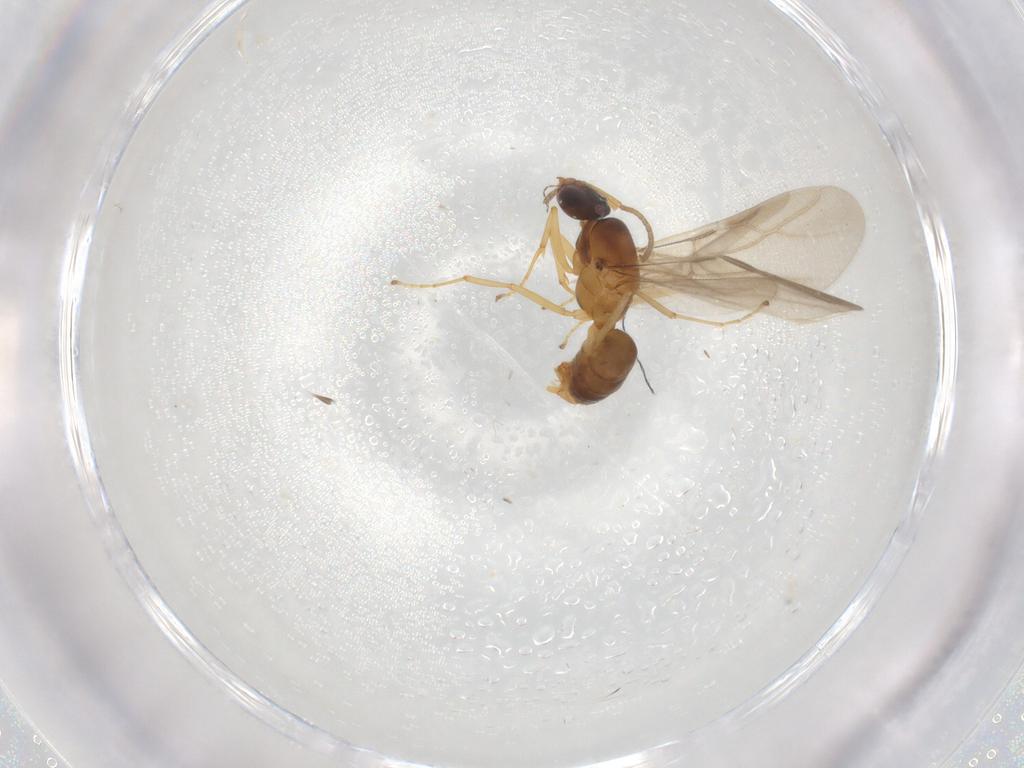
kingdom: Animalia
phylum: Arthropoda
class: Insecta
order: Hymenoptera
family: Formicidae
